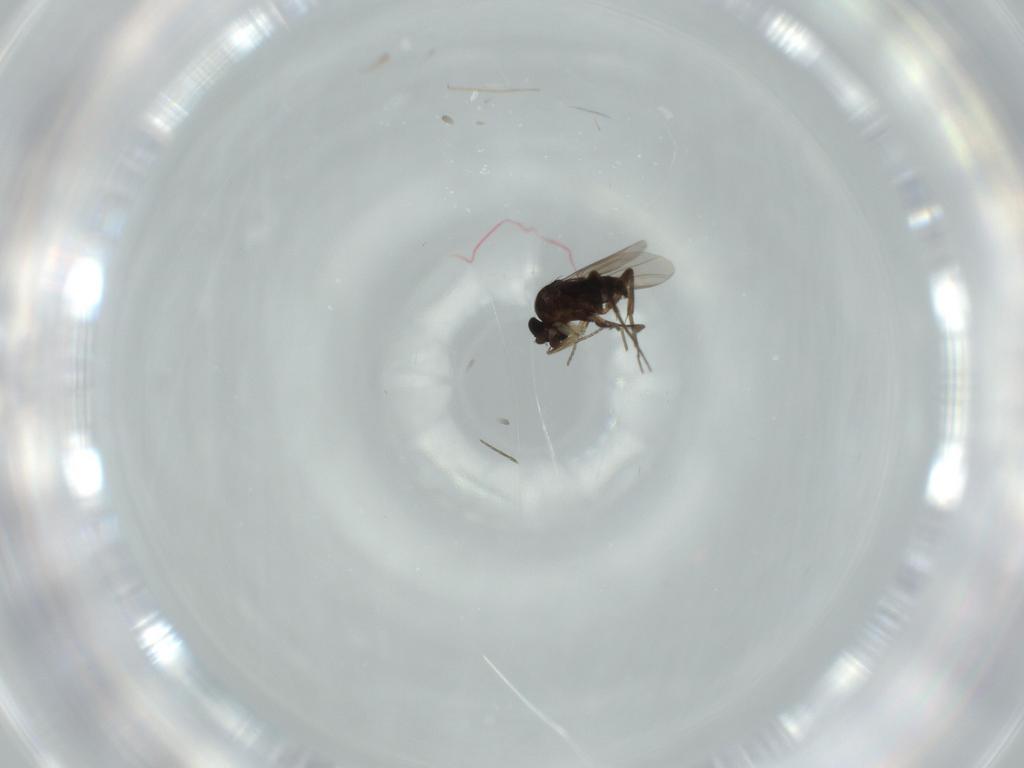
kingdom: Animalia
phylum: Arthropoda
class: Insecta
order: Diptera
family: Phoridae
